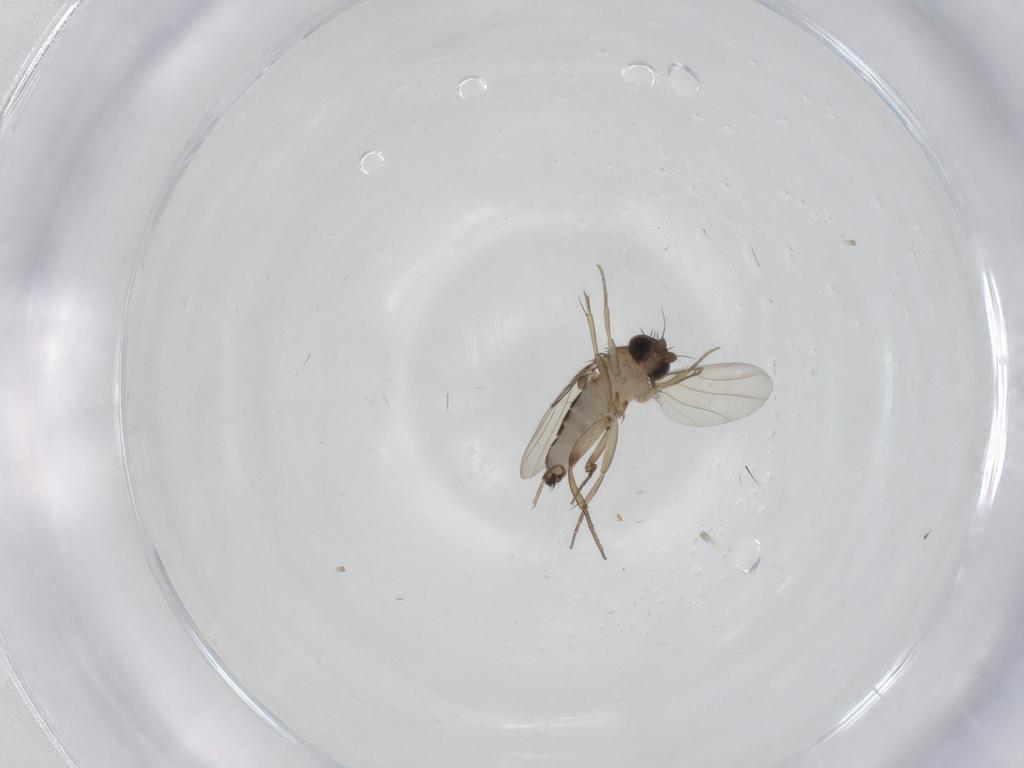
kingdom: Animalia
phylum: Arthropoda
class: Insecta
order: Diptera
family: Phoridae
